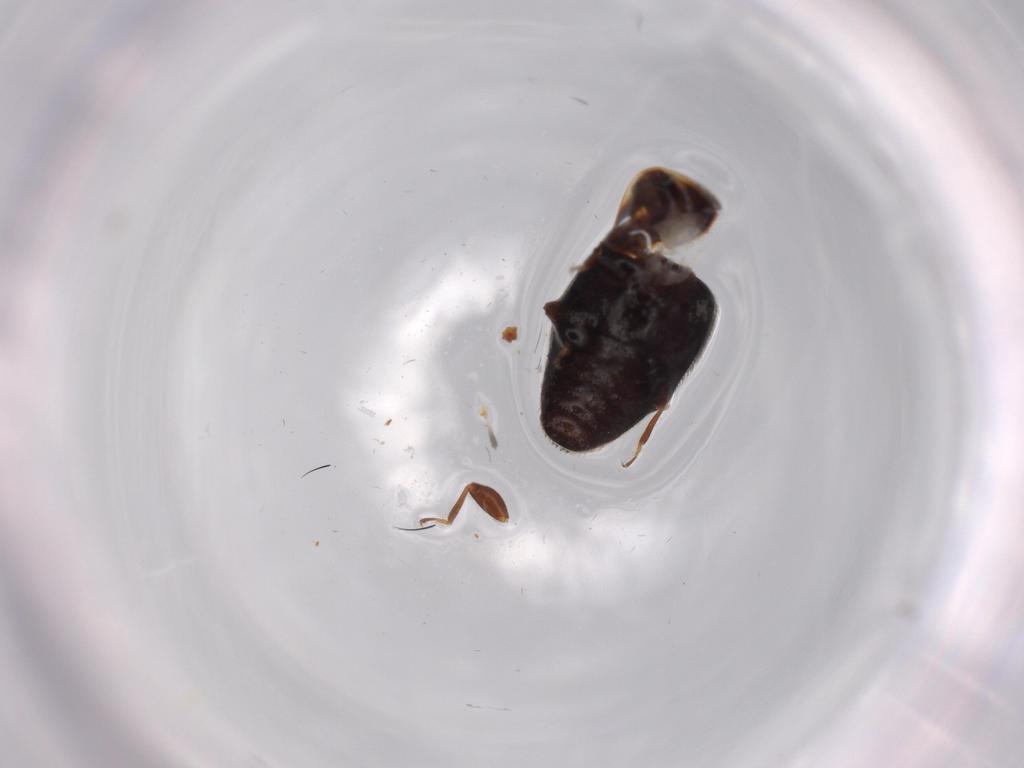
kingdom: Animalia
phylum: Arthropoda
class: Insecta
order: Coleoptera
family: Corylophidae
